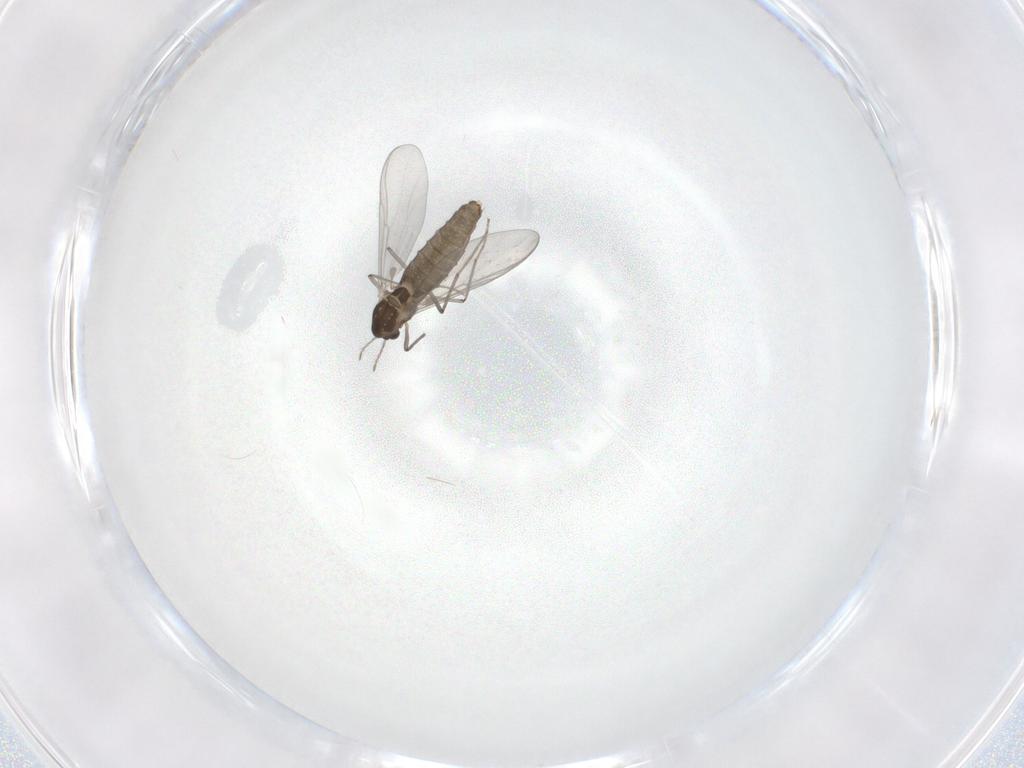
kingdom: Animalia
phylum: Arthropoda
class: Insecta
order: Diptera
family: Chironomidae
